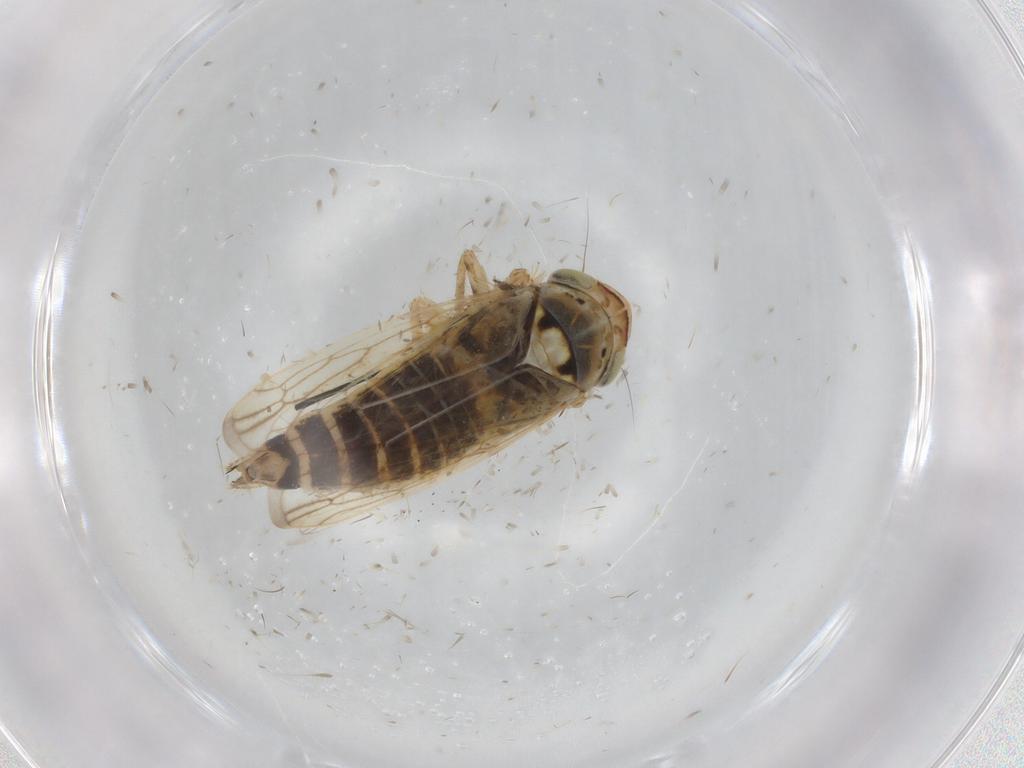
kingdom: Animalia
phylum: Arthropoda
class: Insecta
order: Hemiptera
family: Cicadellidae
